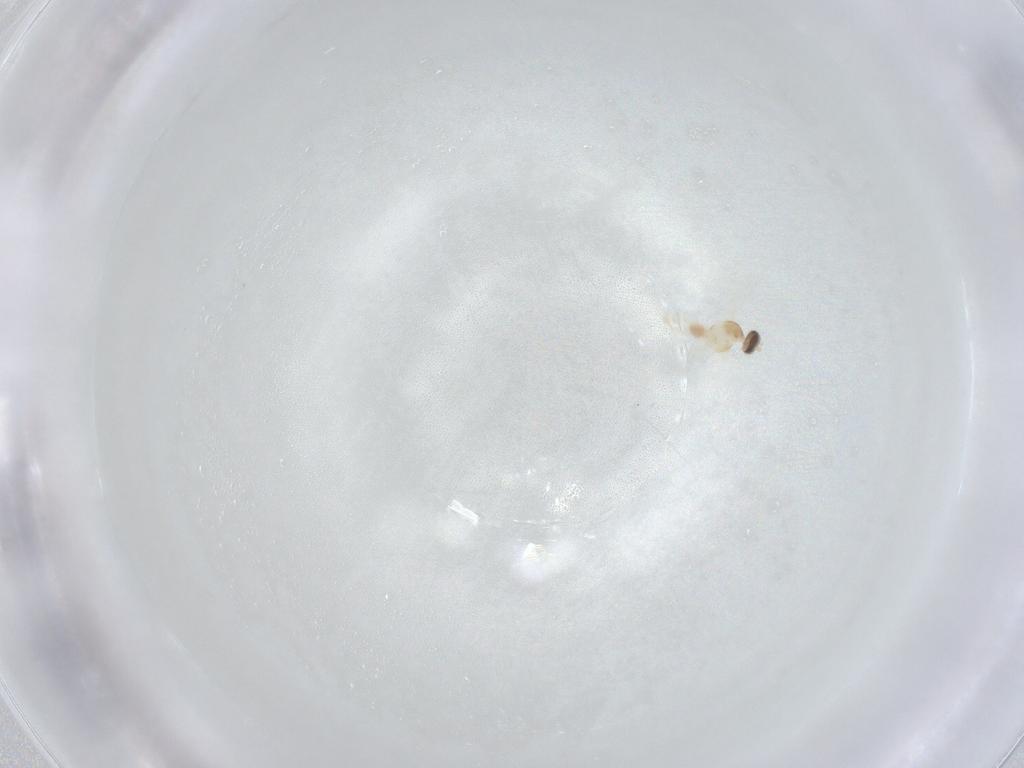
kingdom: Animalia
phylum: Arthropoda
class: Insecta
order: Diptera
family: Cecidomyiidae
